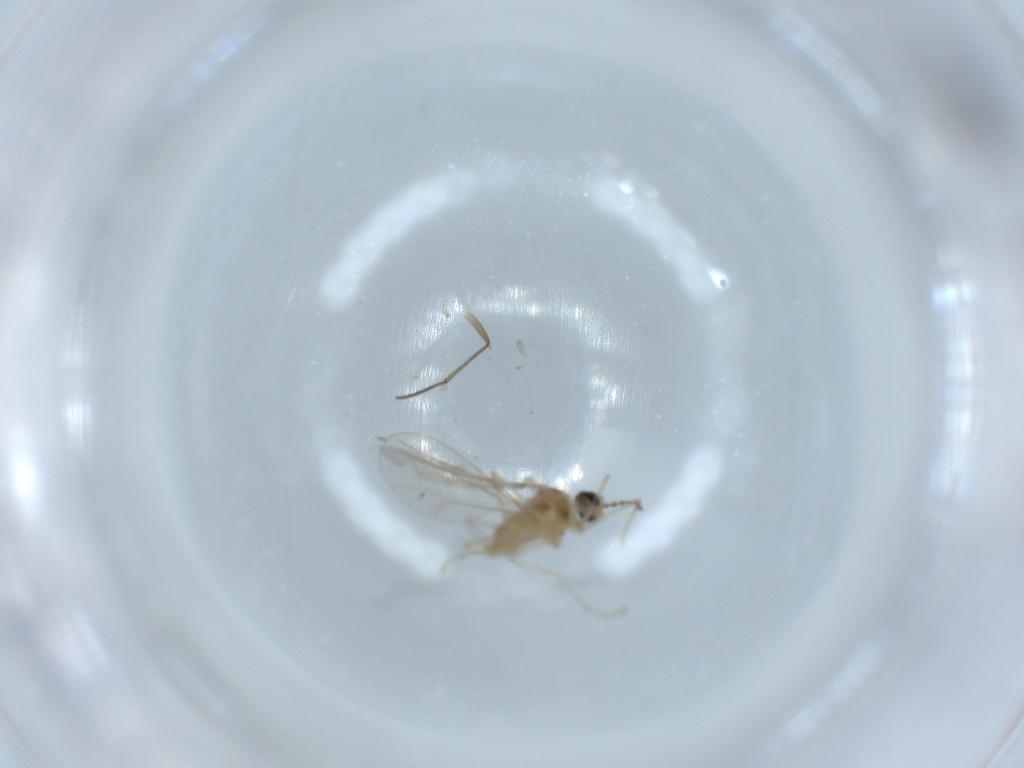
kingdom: Animalia
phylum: Arthropoda
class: Insecta
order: Diptera
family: Cecidomyiidae
